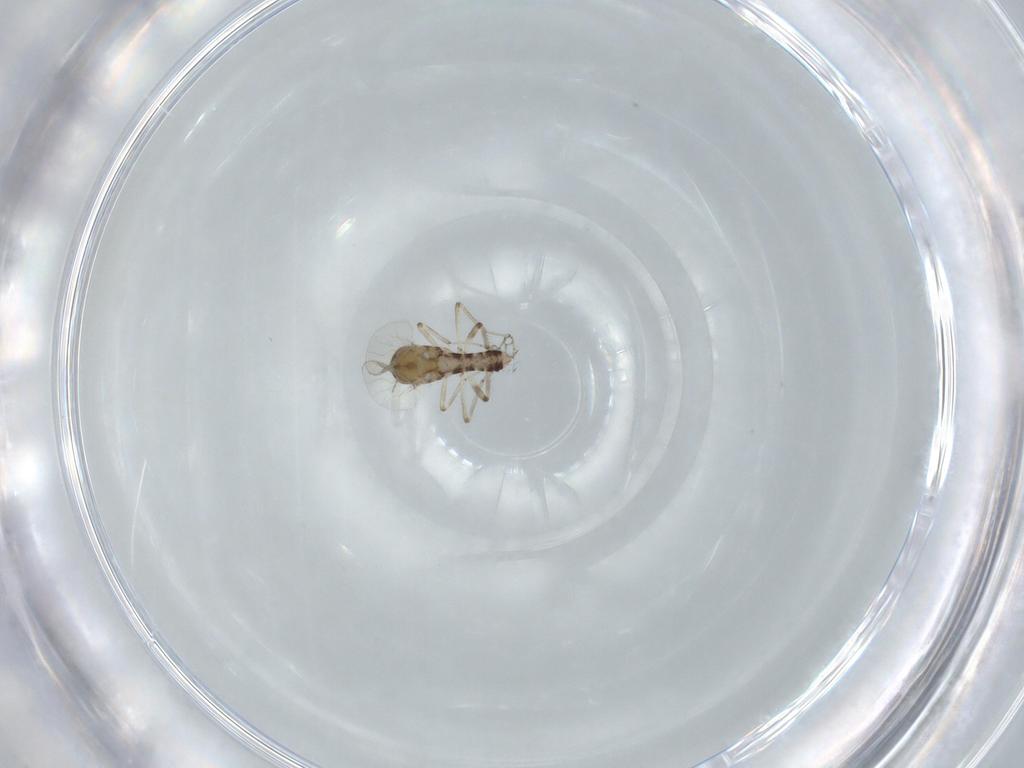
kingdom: Animalia
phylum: Arthropoda
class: Insecta
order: Diptera
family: Ceratopogonidae
